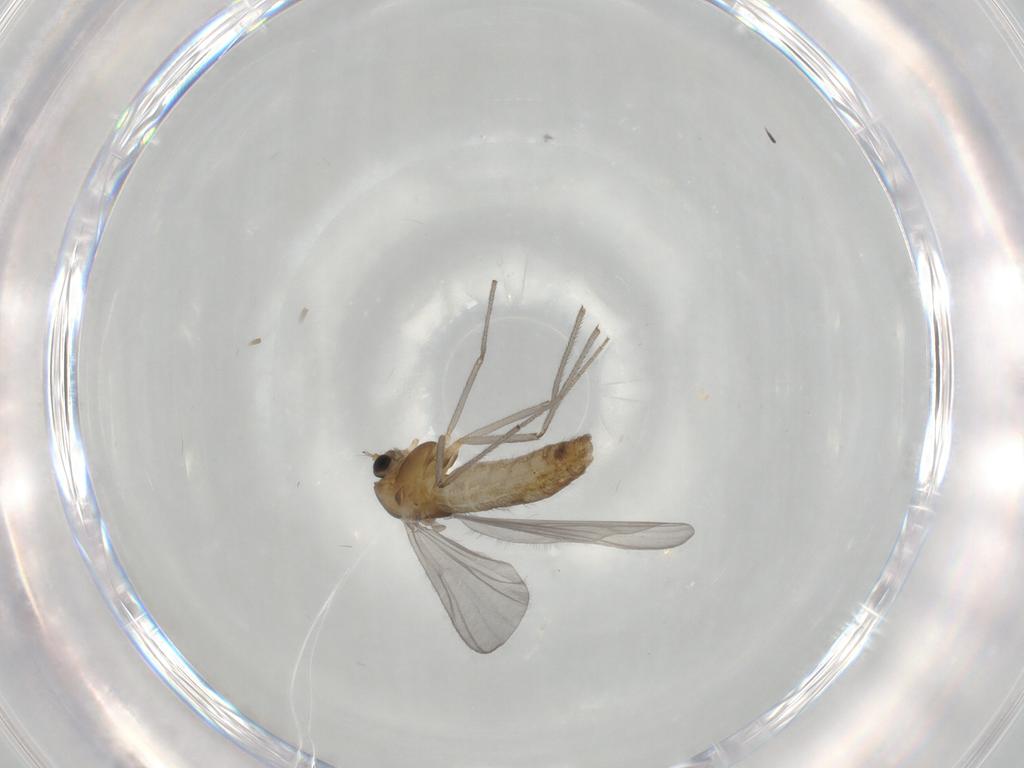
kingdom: Animalia
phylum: Arthropoda
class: Insecta
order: Diptera
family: Chironomidae
